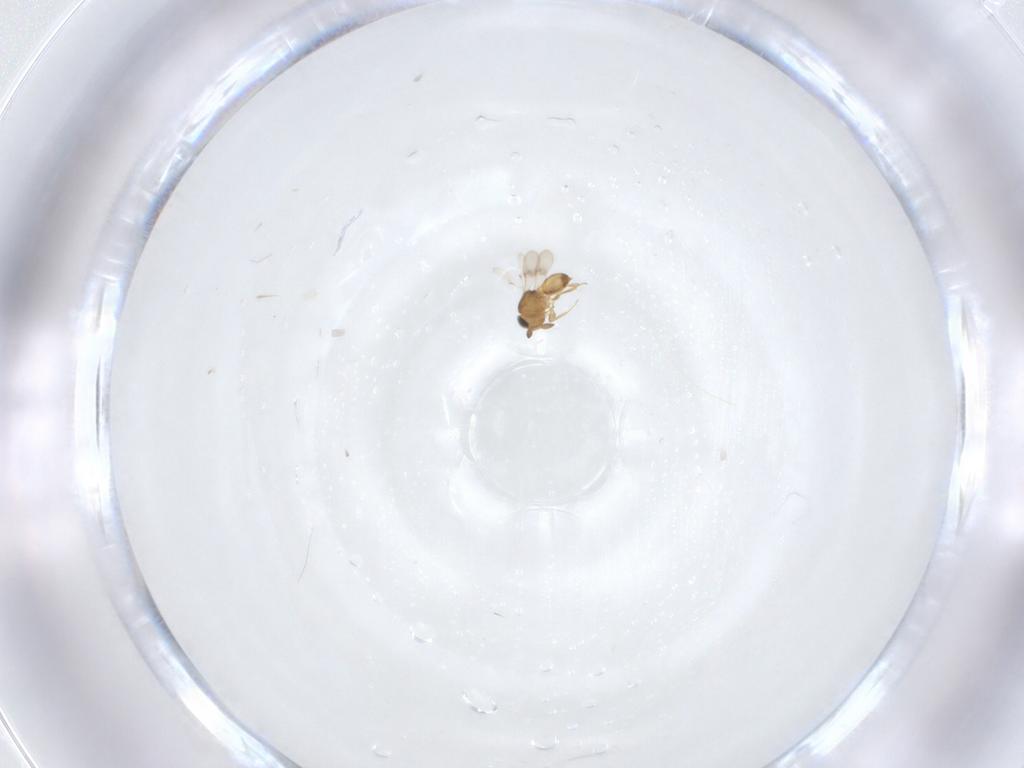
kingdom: Animalia
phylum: Arthropoda
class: Insecta
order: Hymenoptera
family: Scelionidae
